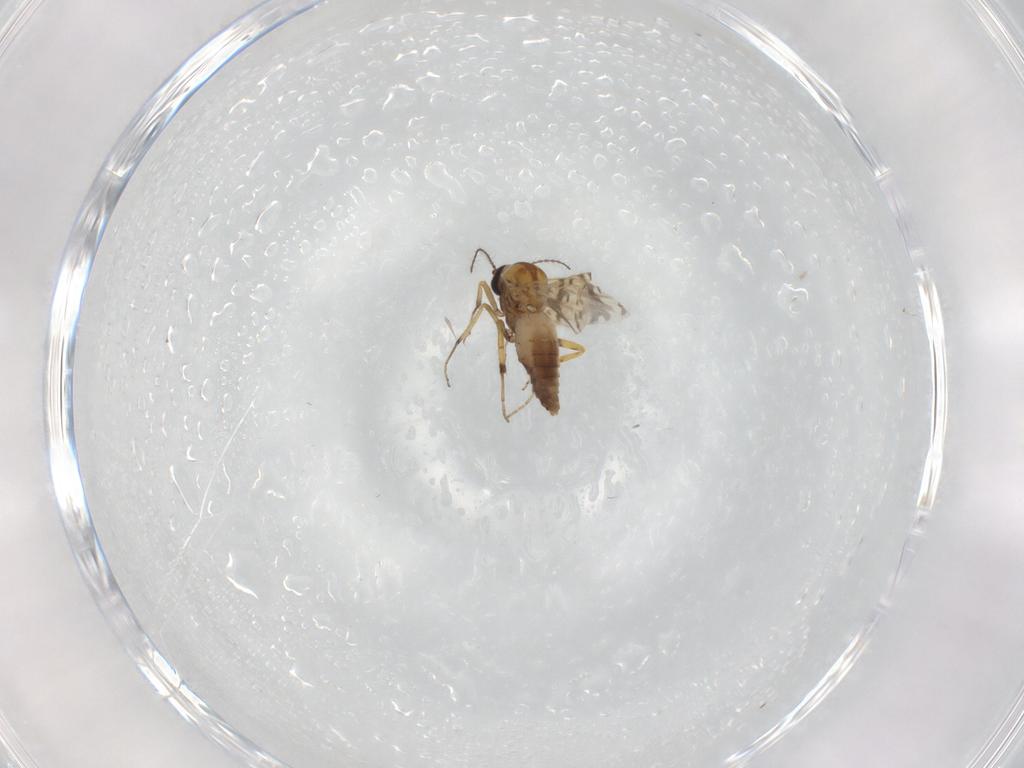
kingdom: Animalia
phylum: Arthropoda
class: Insecta
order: Diptera
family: Ceratopogonidae
